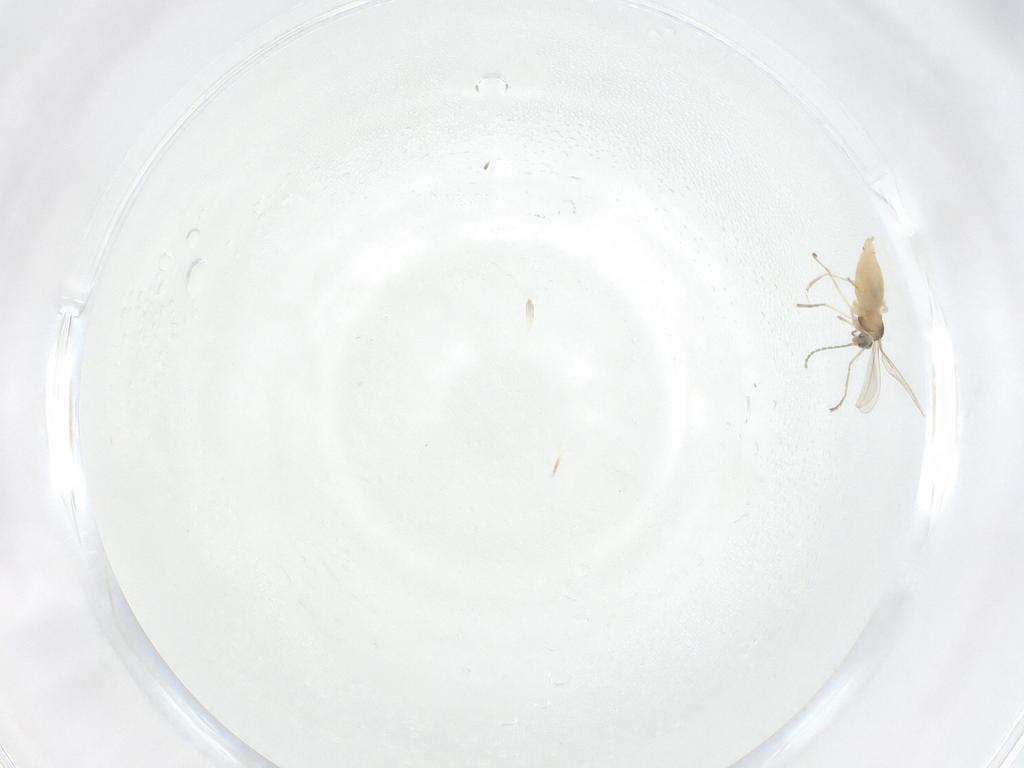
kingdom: Animalia
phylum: Arthropoda
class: Insecta
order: Diptera
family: Cecidomyiidae
